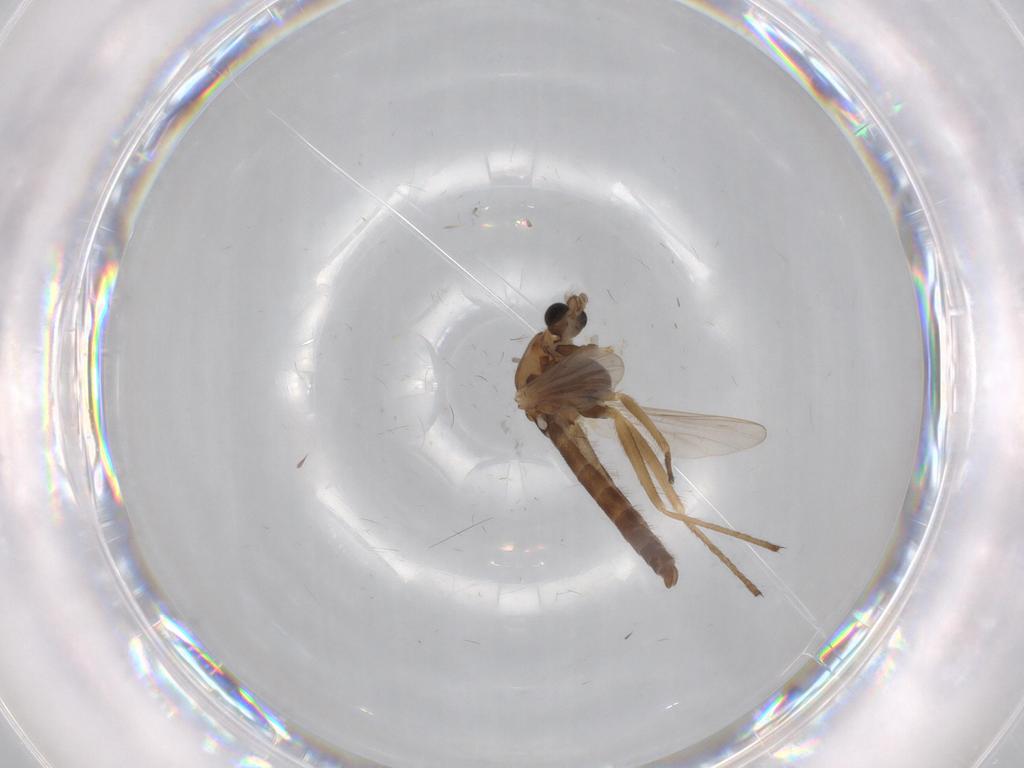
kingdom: Animalia
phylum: Arthropoda
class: Insecta
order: Diptera
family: Chironomidae
